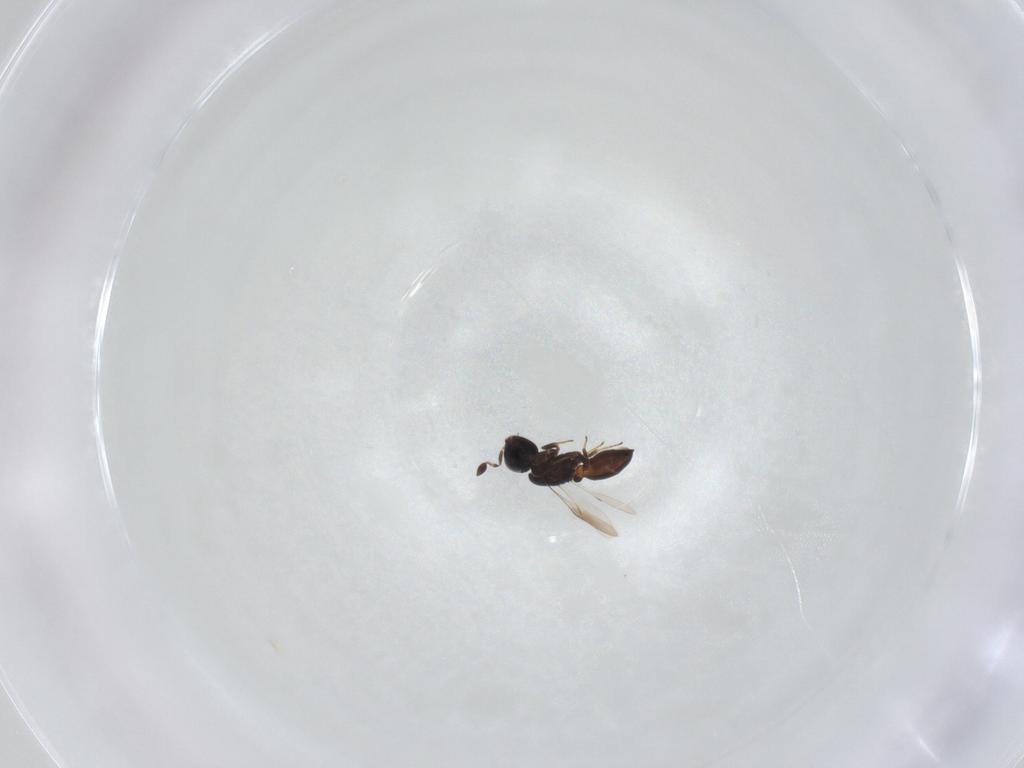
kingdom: Animalia
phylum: Arthropoda
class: Insecta
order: Hymenoptera
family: Scelionidae
